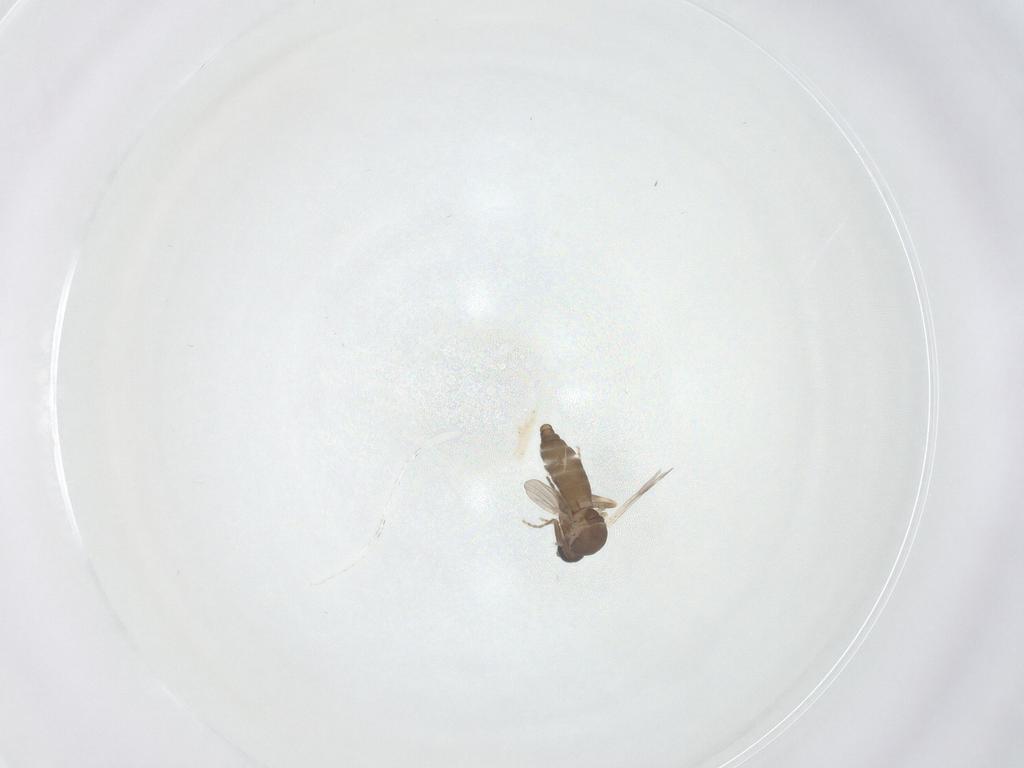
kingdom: Animalia
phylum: Arthropoda
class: Insecta
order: Diptera
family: Ceratopogonidae
